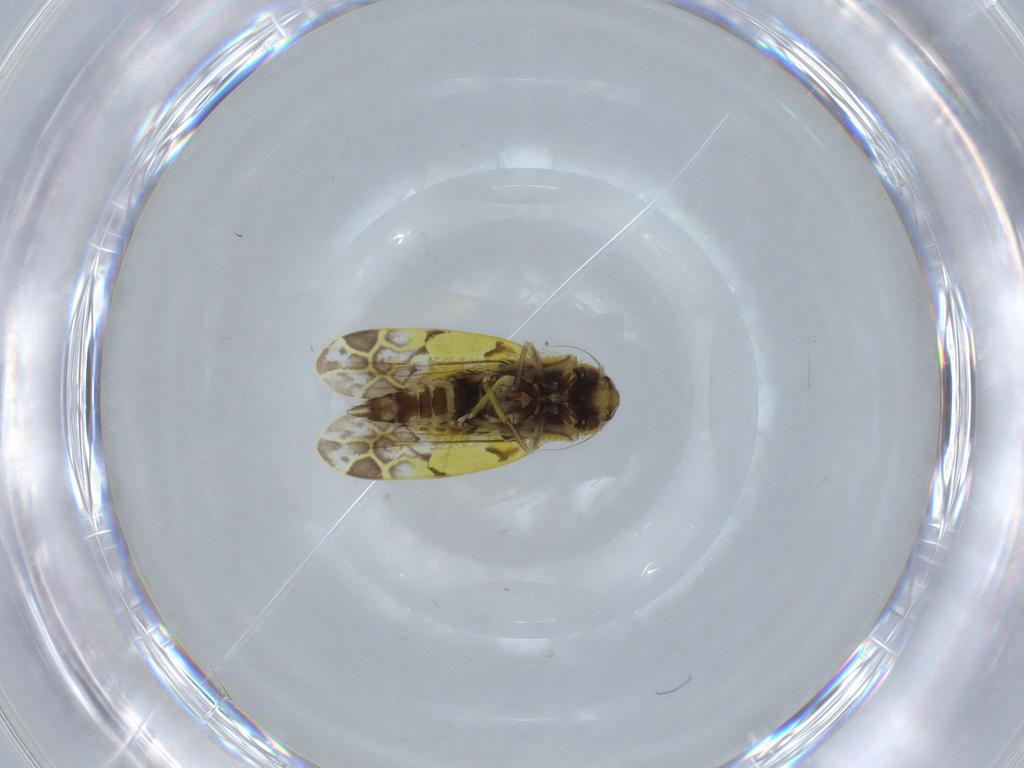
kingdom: Animalia
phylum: Arthropoda
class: Insecta
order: Hemiptera
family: Cicadellidae
